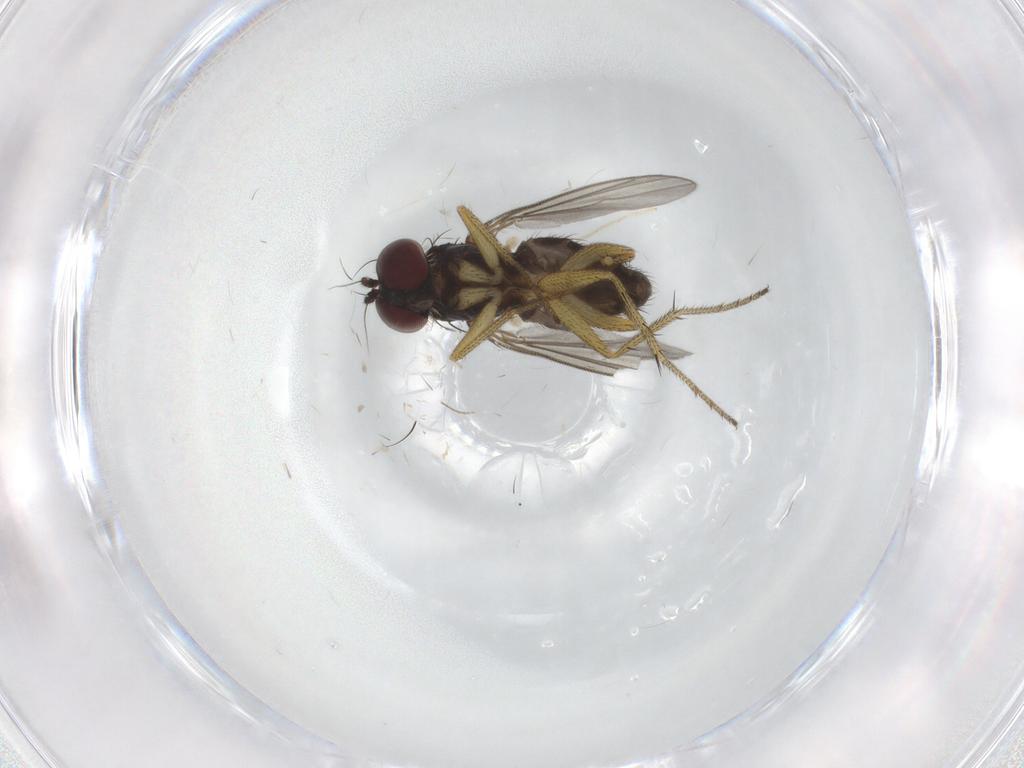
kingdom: Animalia
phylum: Arthropoda
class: Insecta
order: Diptera
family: Chironomidae
